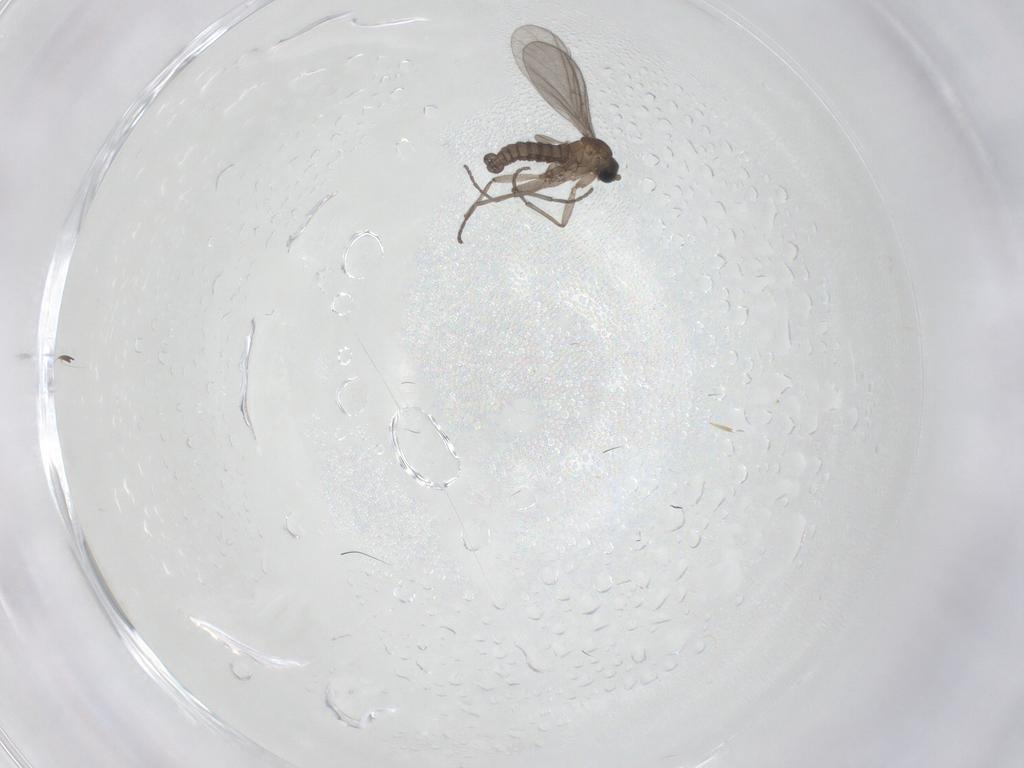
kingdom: Animalia
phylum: Arthropoda
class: Insecta
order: Diptera
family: Sciaridae
